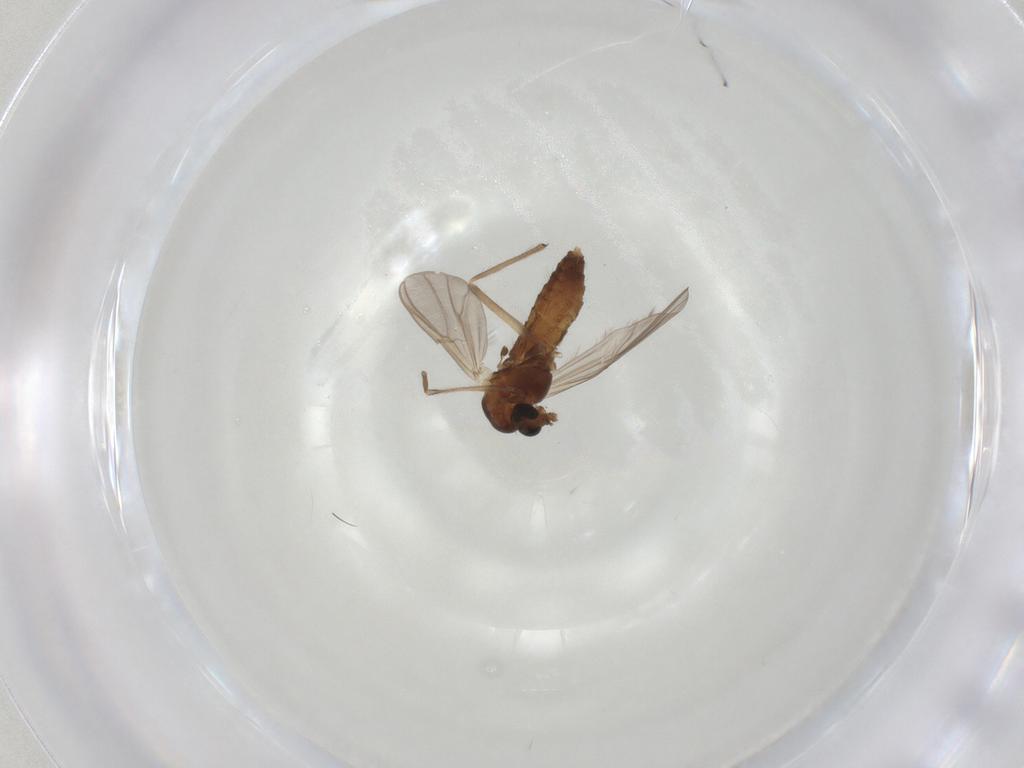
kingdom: Animalia
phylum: Arthropoda
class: Insecta
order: Diptera
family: Chironomidae
